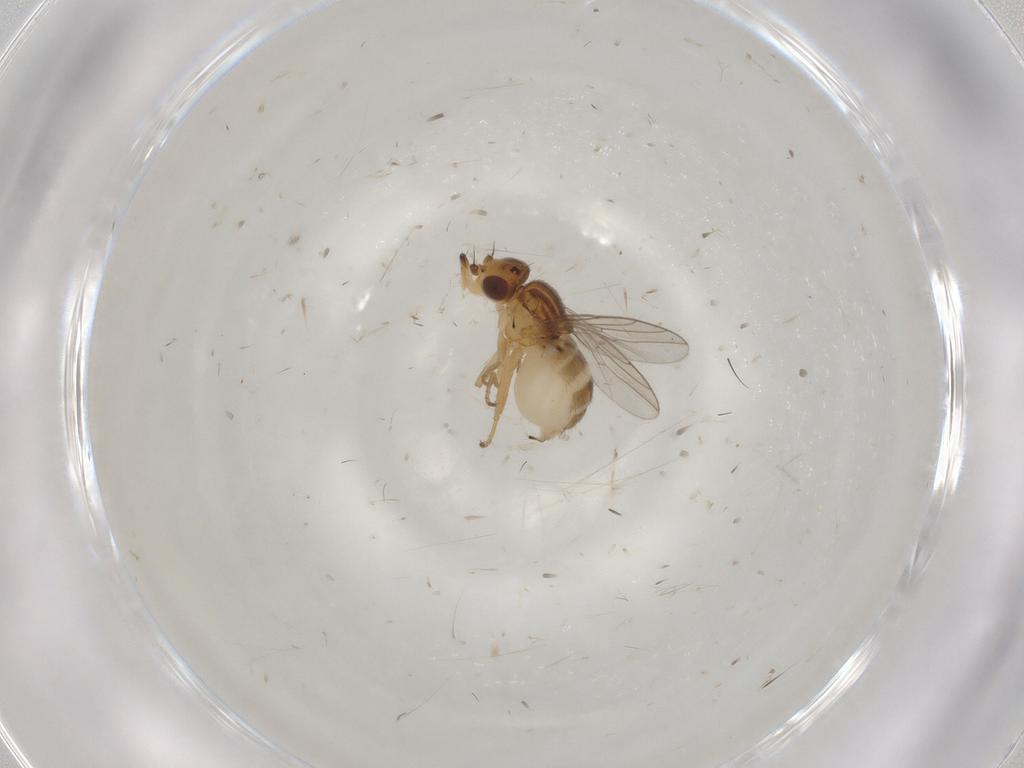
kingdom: Animalia
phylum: Arthropoda
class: Insecta
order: Diptera
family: Chloropidae
